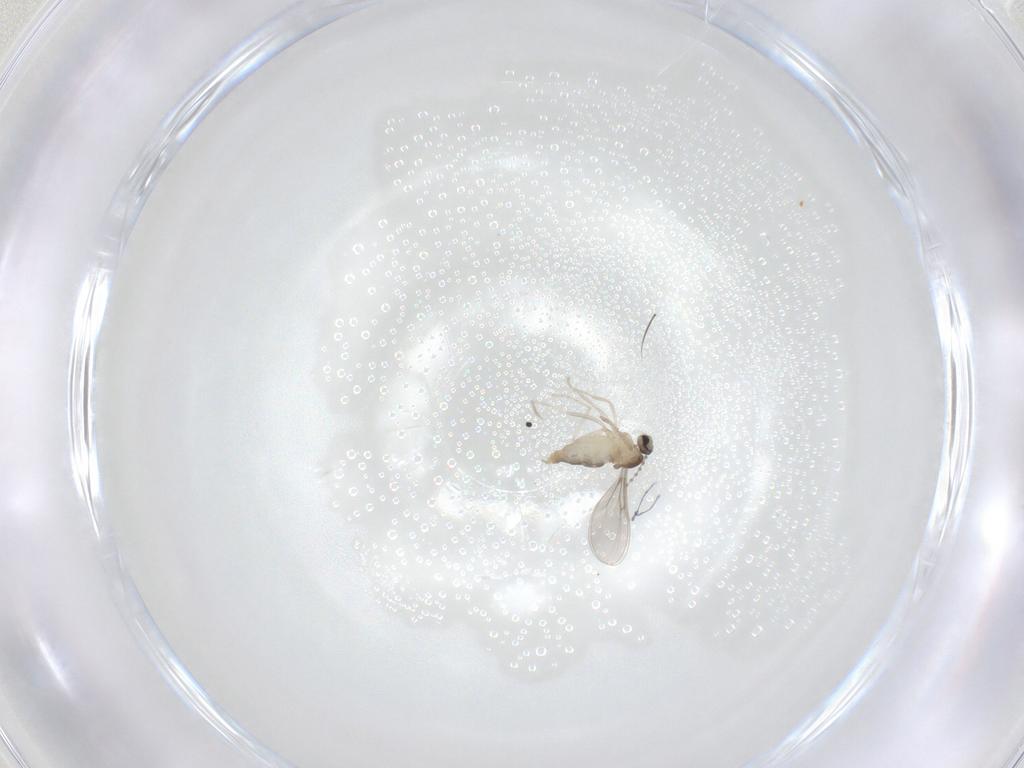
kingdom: Animalia
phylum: Arthropoda
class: Insecta
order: Diptera
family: Cecidomyiidae
